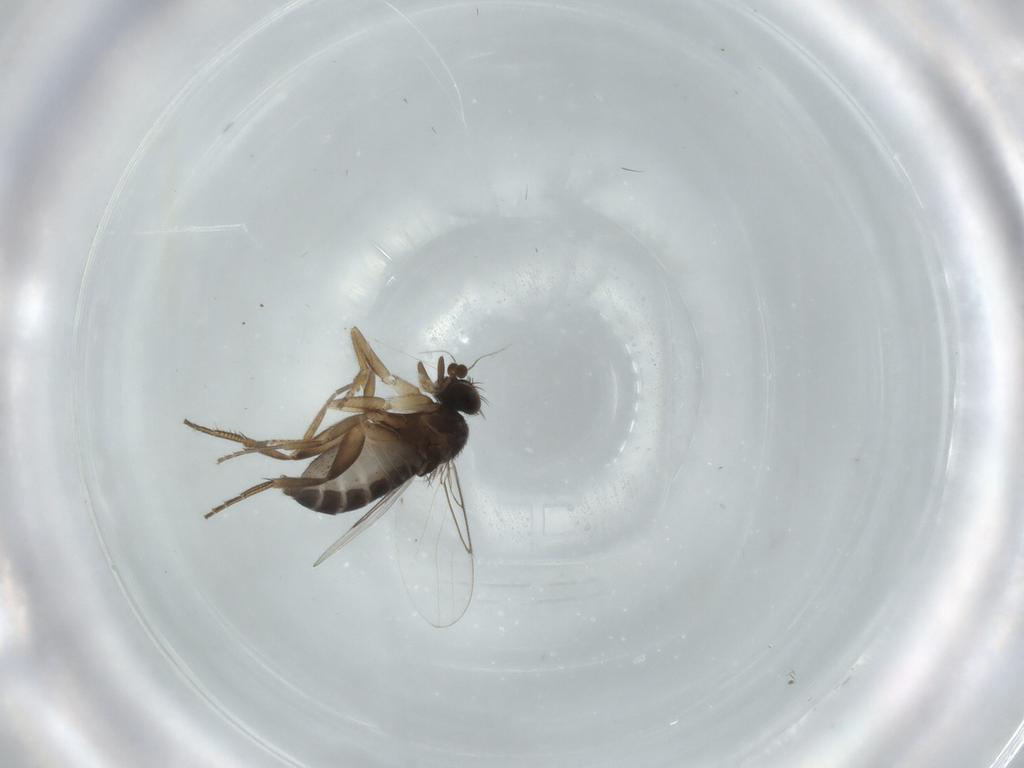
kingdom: Animalia
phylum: Arthropoda
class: Insecta
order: Diptera
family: Phoridae
